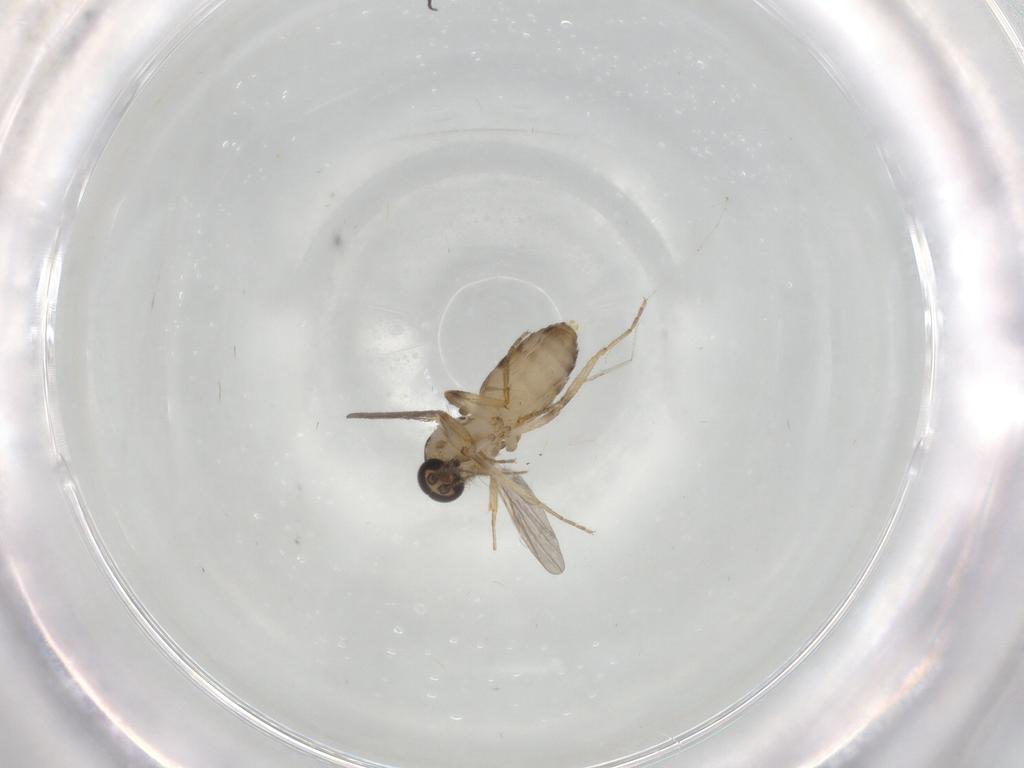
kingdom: Animalia
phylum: Arthropoda
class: Insecta
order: Diptera
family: Ceratopogonidae
